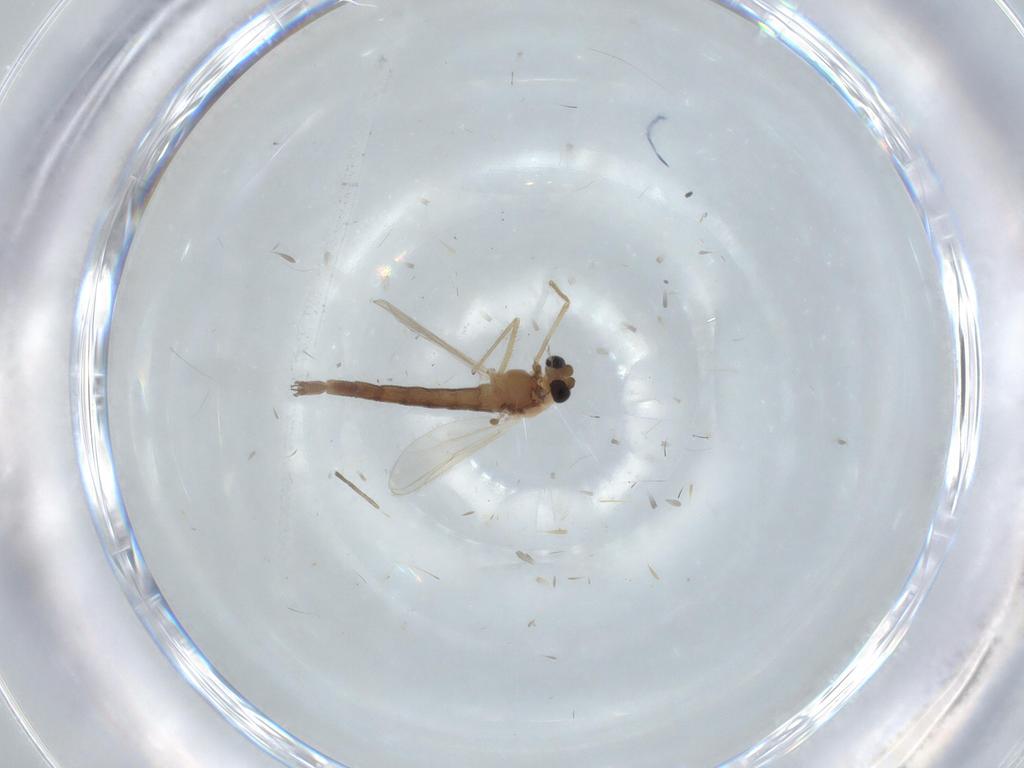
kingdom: Animalia
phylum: Arthropoda
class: Insecta
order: Diptera
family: Chironomidae
